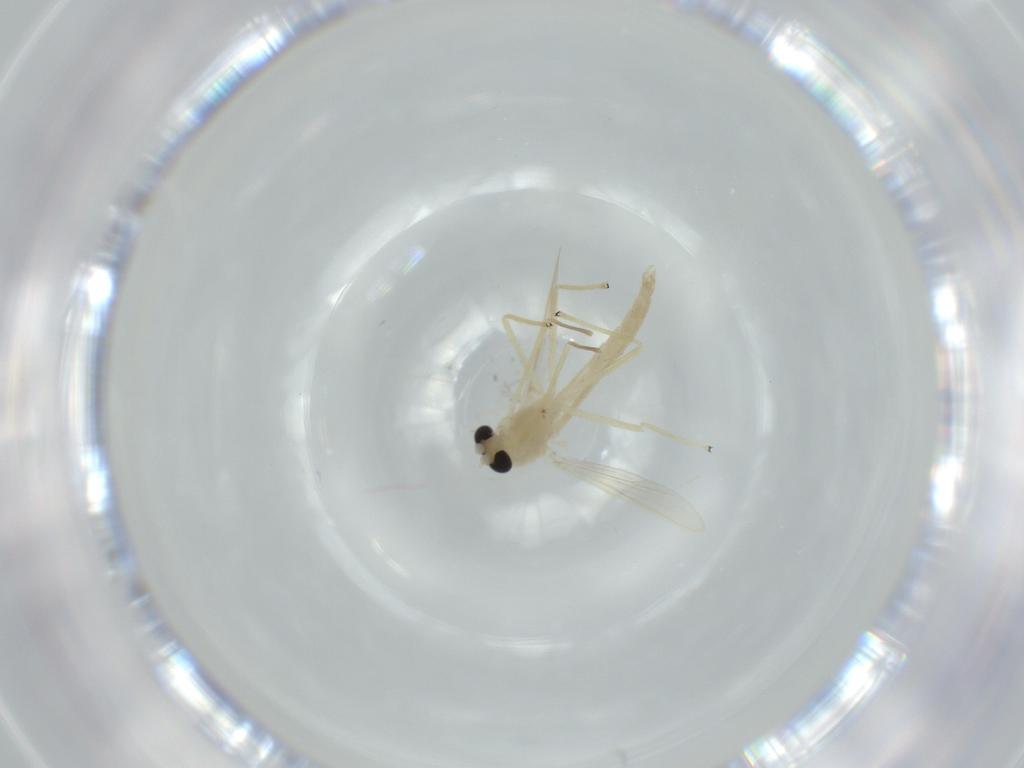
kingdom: Animalia
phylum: Arthropoda
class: Insecta
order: Diptera
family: Chironomidae
